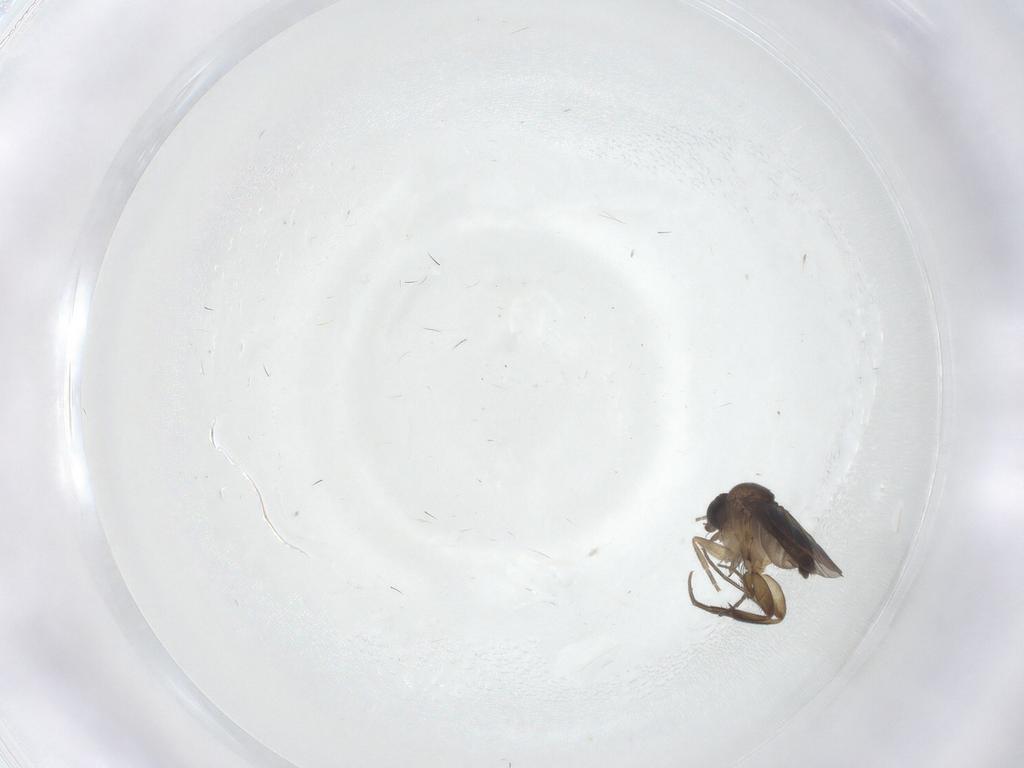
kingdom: Animalia
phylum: Arthropoda
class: Insecta
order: Diptera
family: Phoridae
